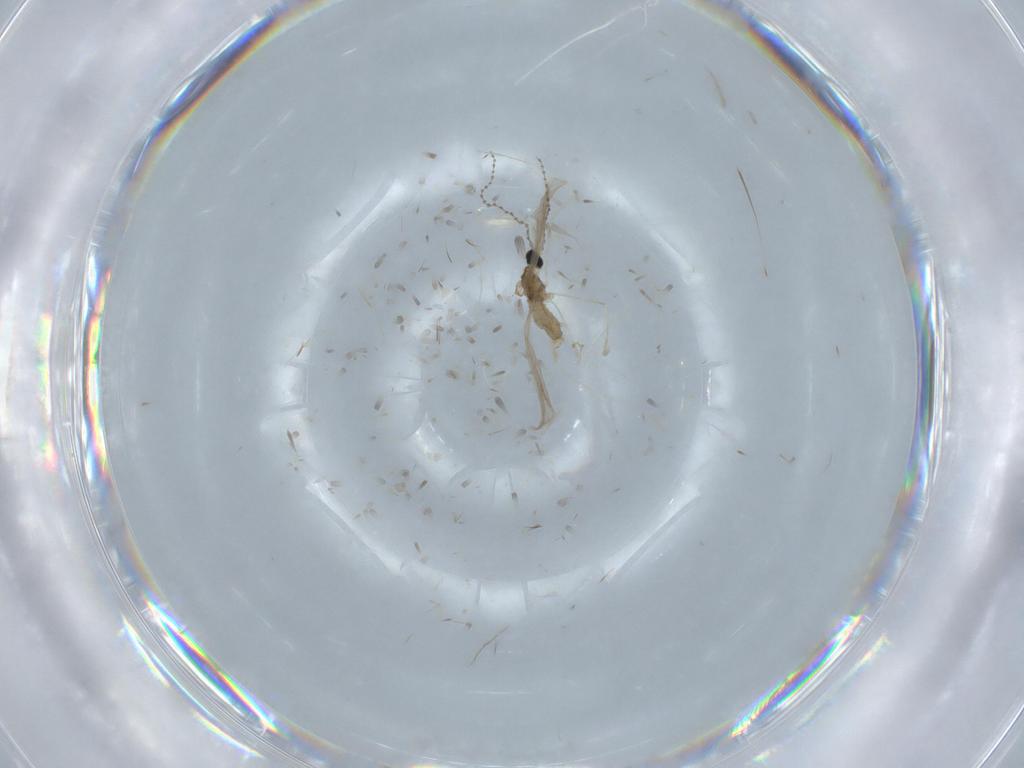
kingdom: Animalia
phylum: Arthropoda
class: Insecta
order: Diptera
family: Cecidomyiidae
